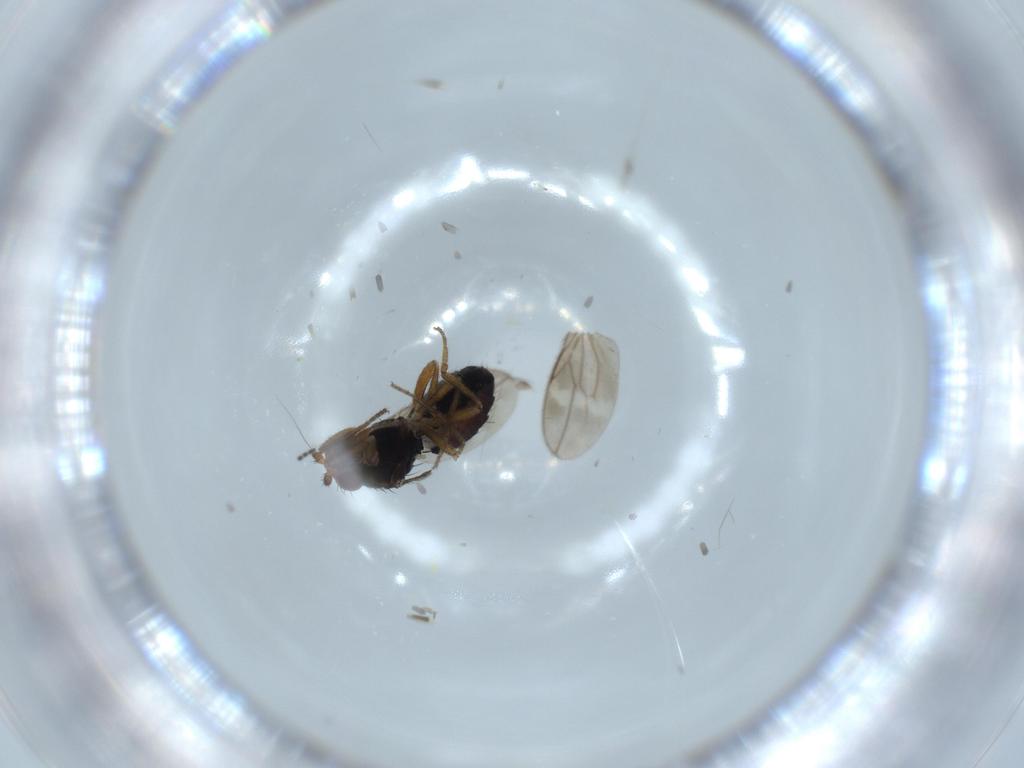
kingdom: Animalia
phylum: Arthropoda
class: Insecta
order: Diptera
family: Sphaeroceridae
